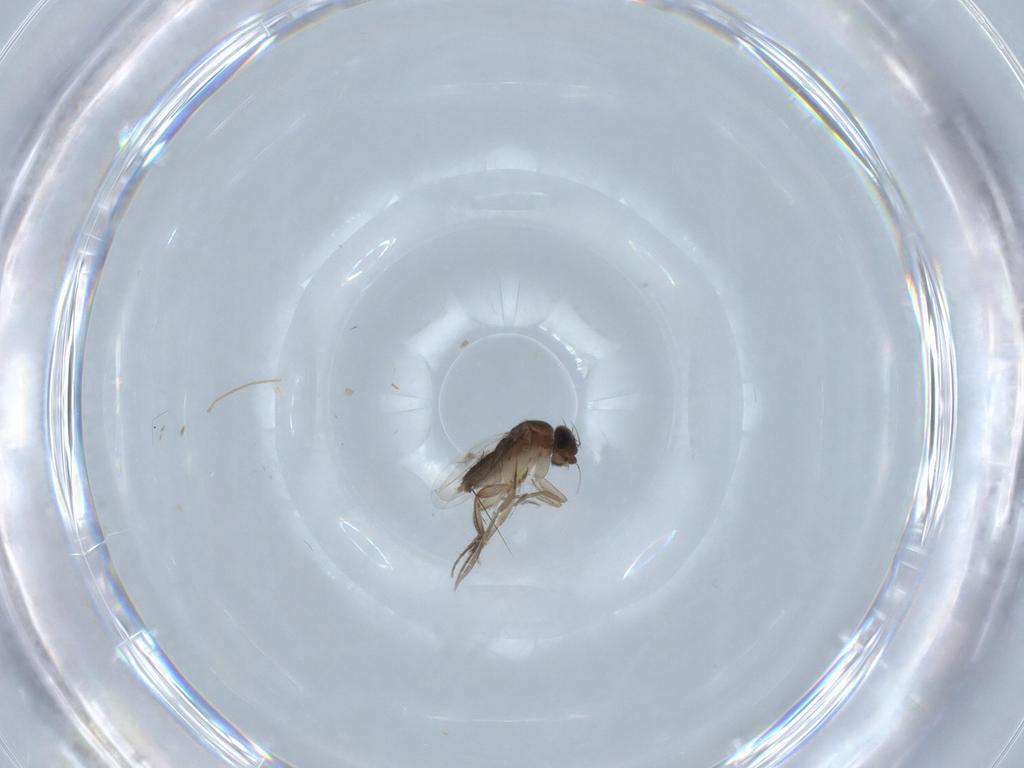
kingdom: Animalia
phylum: Arthropoda
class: Insecta
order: Diptera
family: Phoridae
